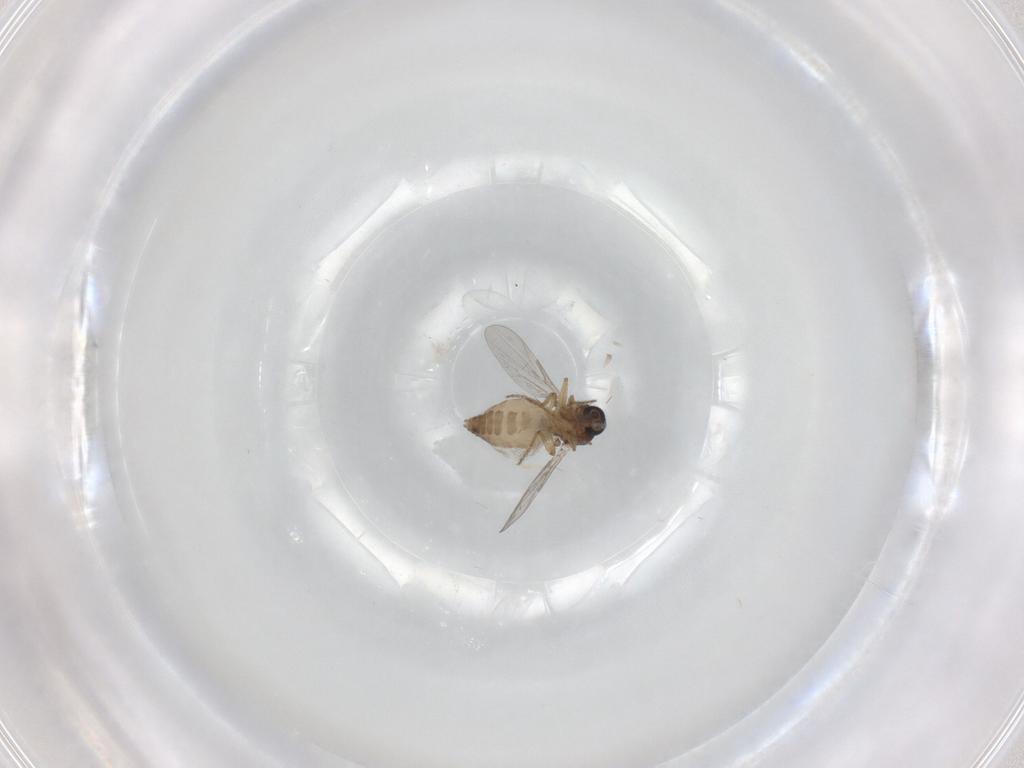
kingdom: Animalia
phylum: Arthropoda
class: Insecta
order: Diptera
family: Ceratopogonidae
